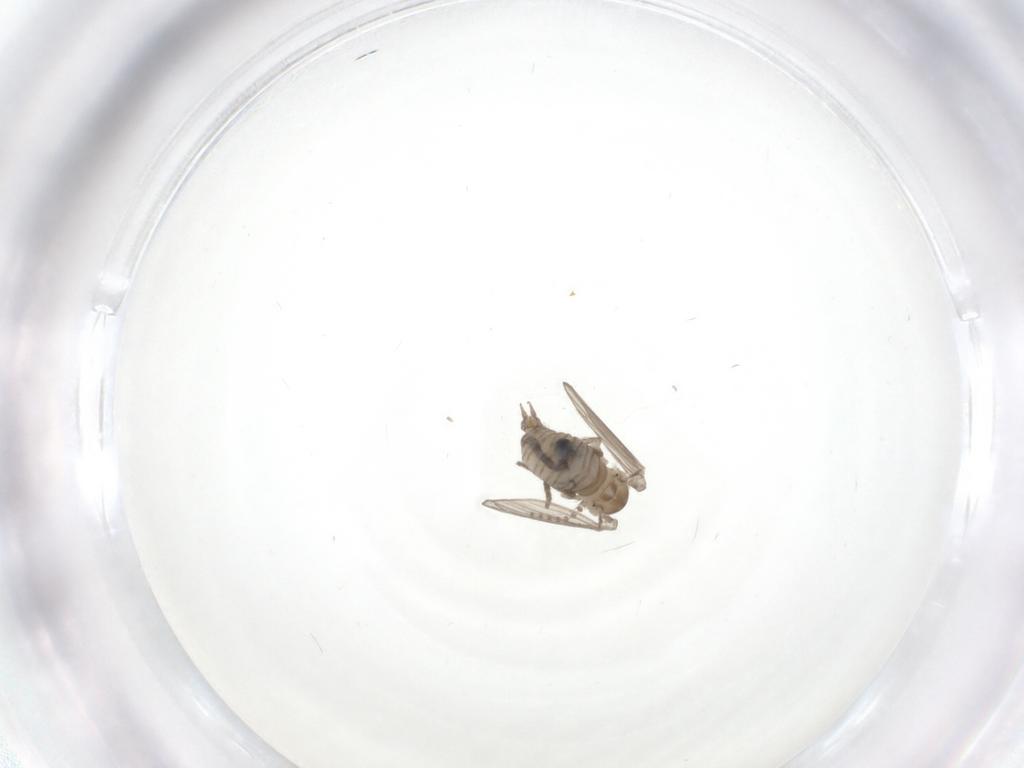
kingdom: Animalia
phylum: Arthropoda
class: Insecta
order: Diptera
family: Psychodidae
